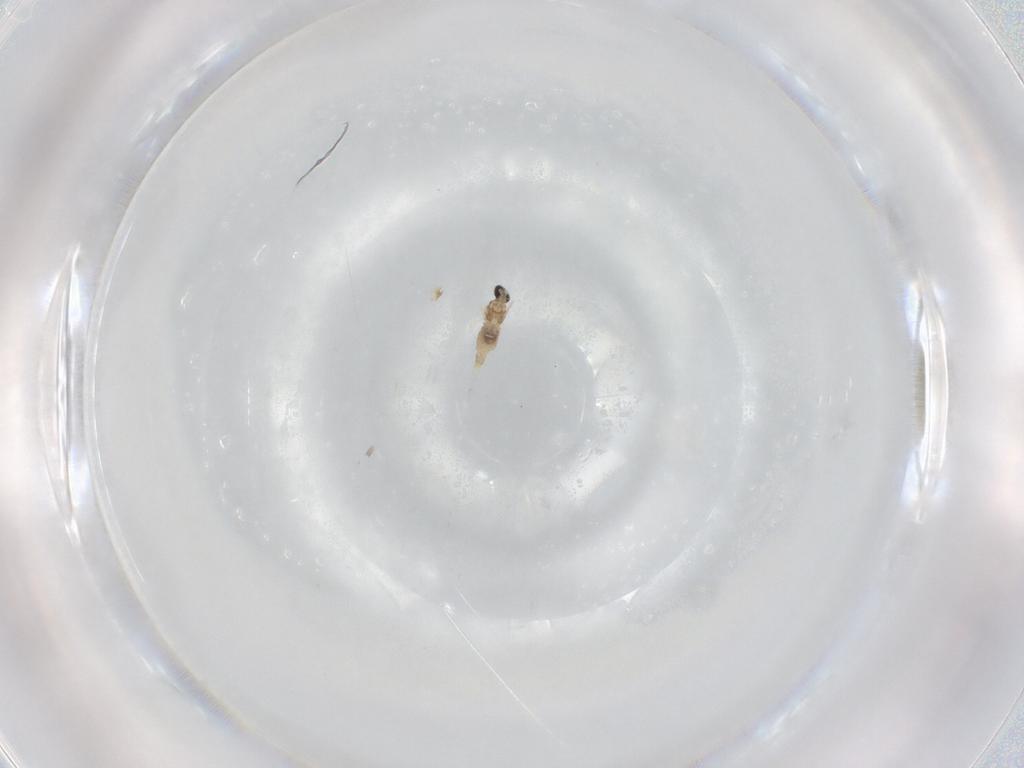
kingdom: Animalia
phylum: Arthropoda
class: Insecta
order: Diptera
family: Cecidomyiidae
